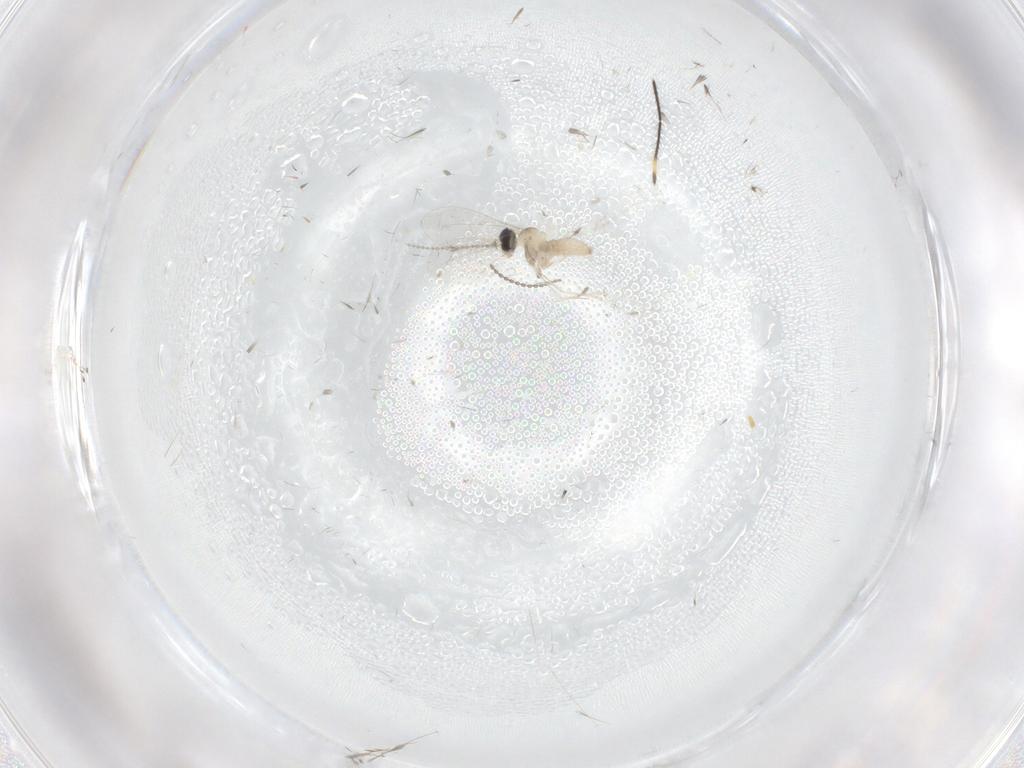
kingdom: Animalia
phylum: Arthropoda
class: Insecta
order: Diptera
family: Cecidomyiidae
